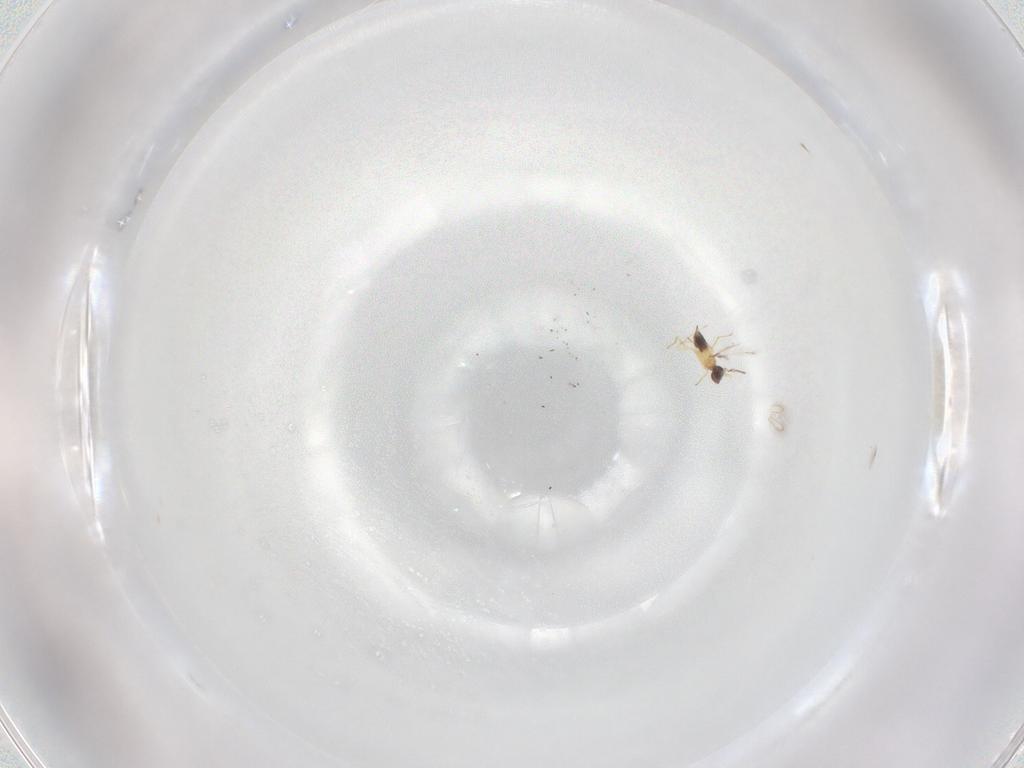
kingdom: Animalia
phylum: Arthropoda
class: Insecta
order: Hymenoptera
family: Mymaridae
